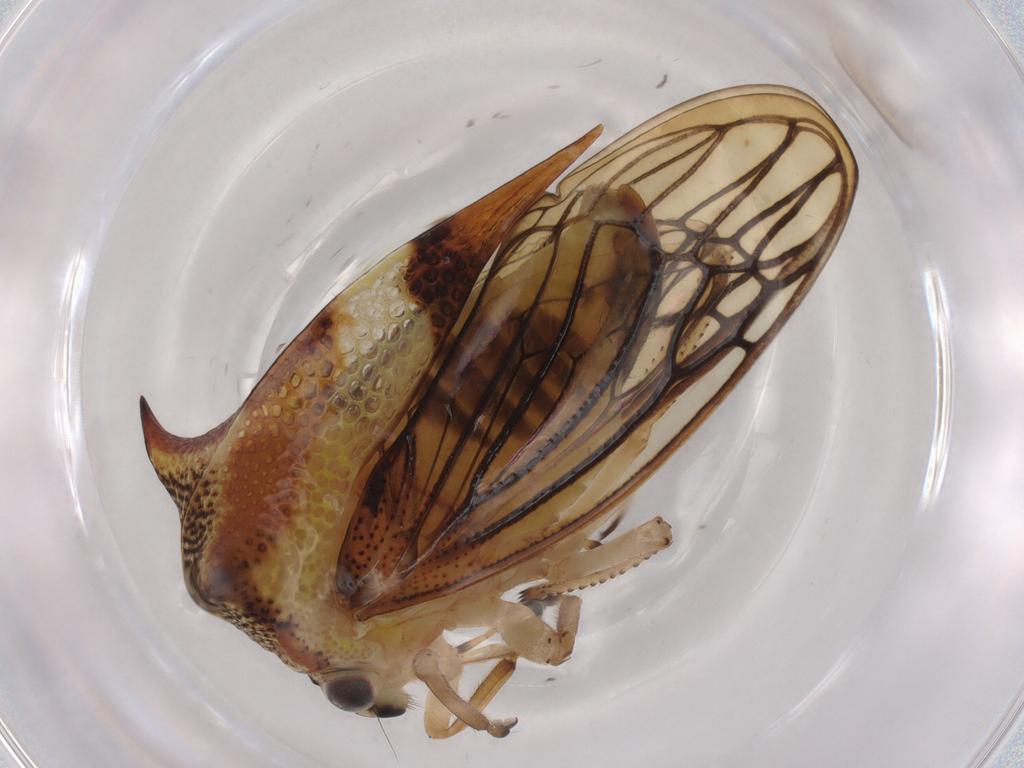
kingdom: Animalia
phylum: Arthropoda
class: Insecta
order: Hemiptera
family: Membracidae
